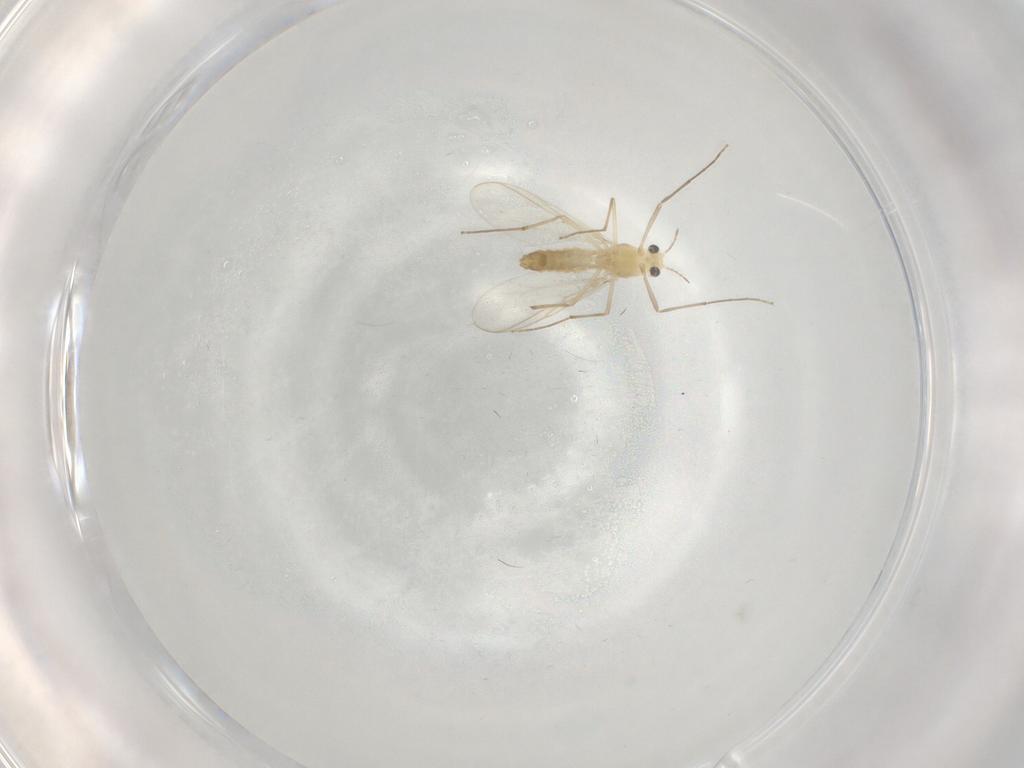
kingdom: Animalia
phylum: Arthropoda
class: Insecta
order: Diptera
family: Chironomidae
